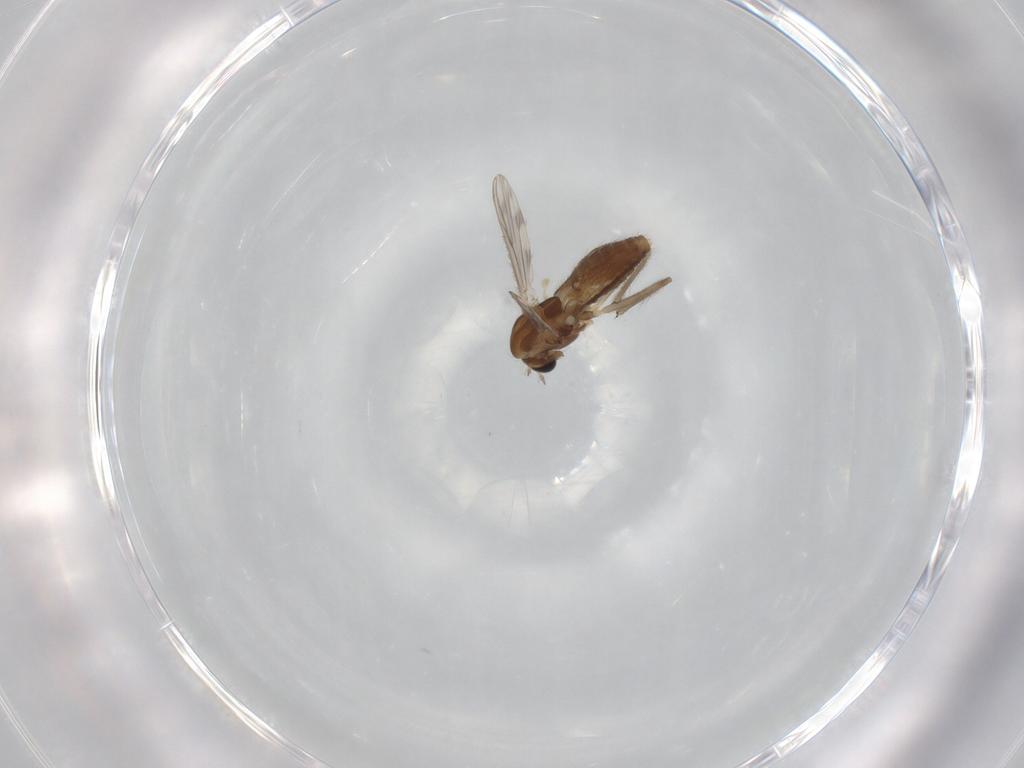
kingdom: Animalia
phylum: Arthropoda
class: Insecta
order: Diptera
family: Chironomidae
